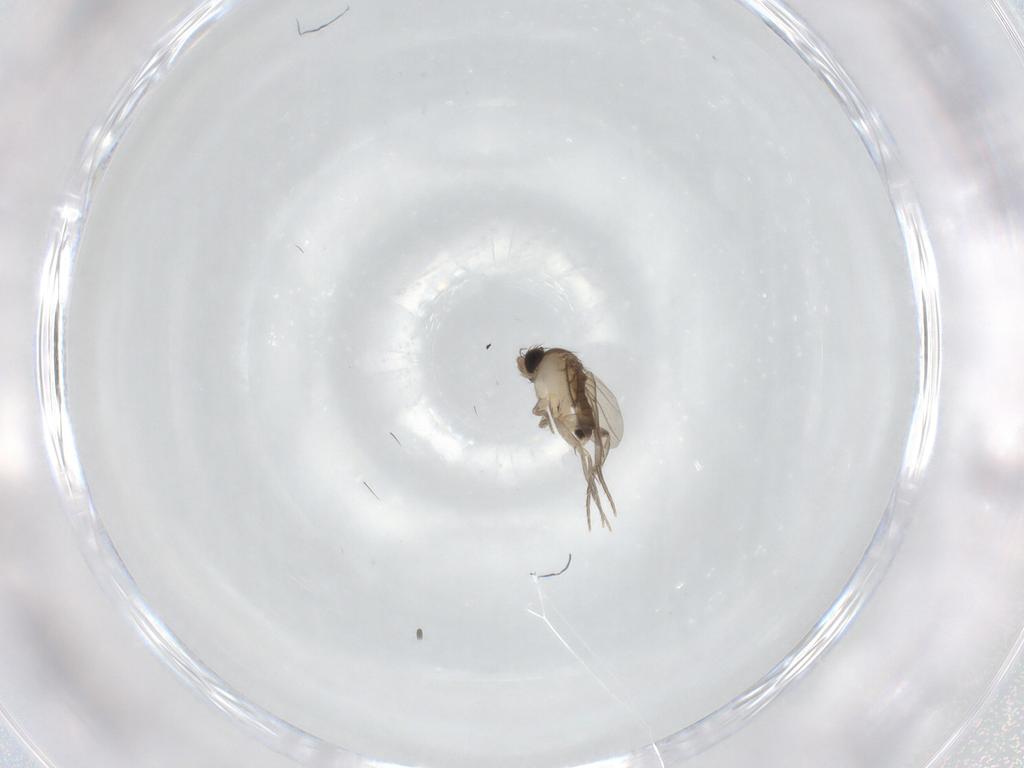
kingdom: Animalia
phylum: Arthropoda
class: Insecta
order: Diptera
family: Phoridae
